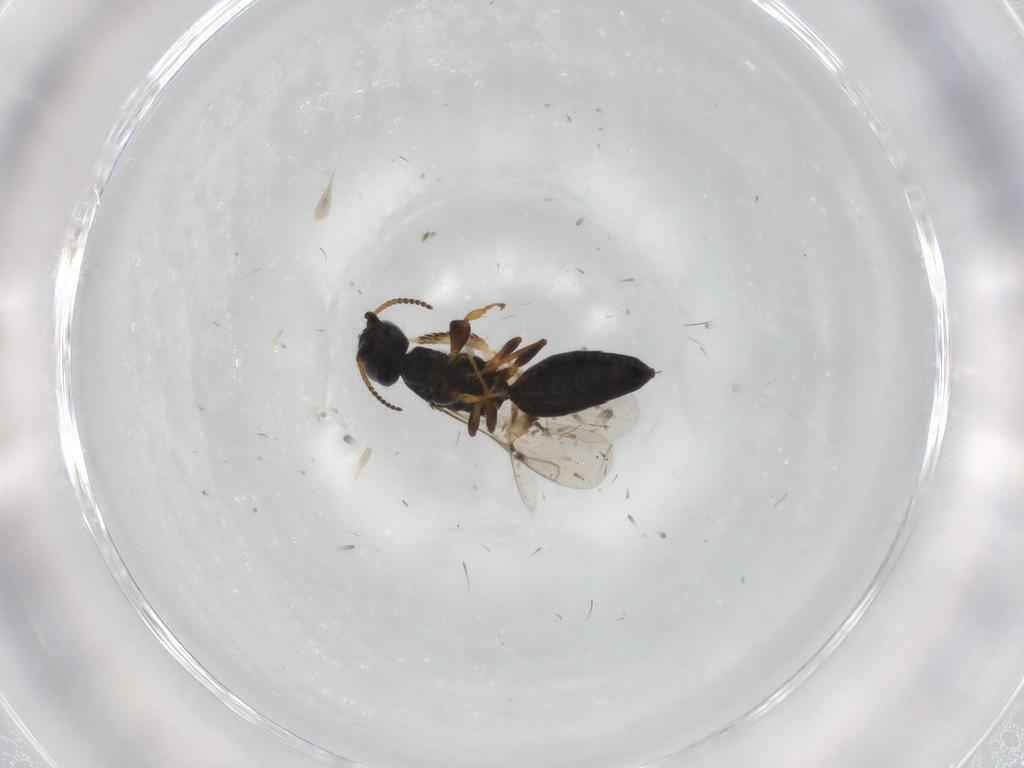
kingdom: Animalia
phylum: Arthropoda
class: Insecta
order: Hymenoptera
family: Bethylidae
